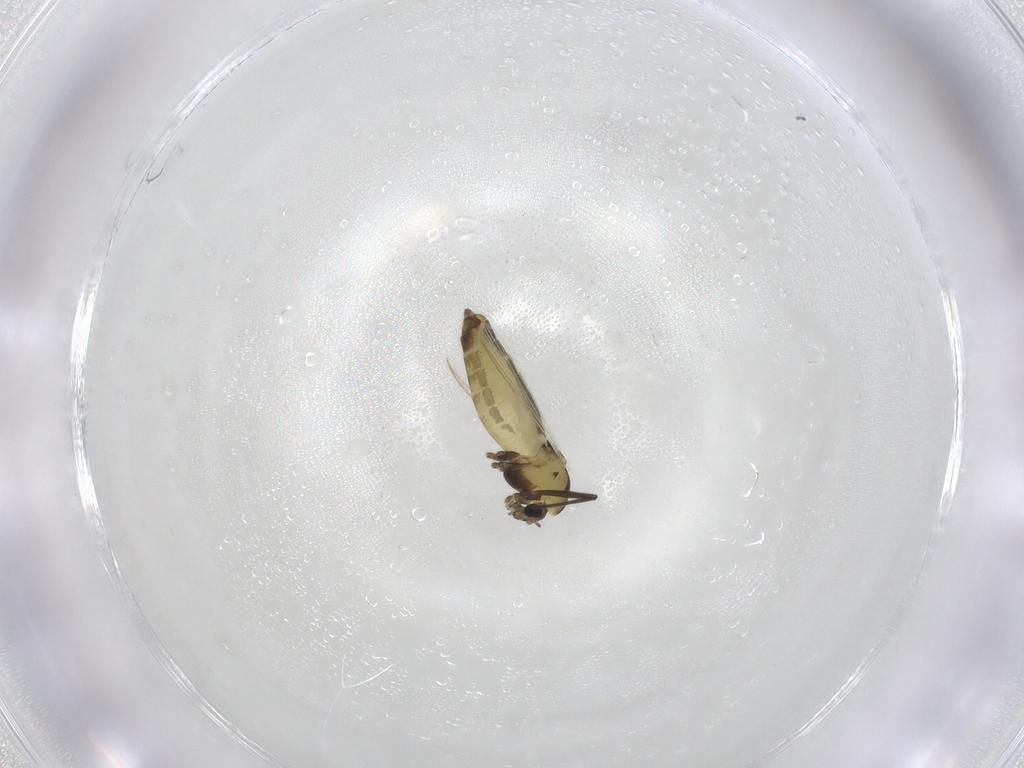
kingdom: Animalia
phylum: Arthropoda
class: Insecta
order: Diptera
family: Chironomidae
